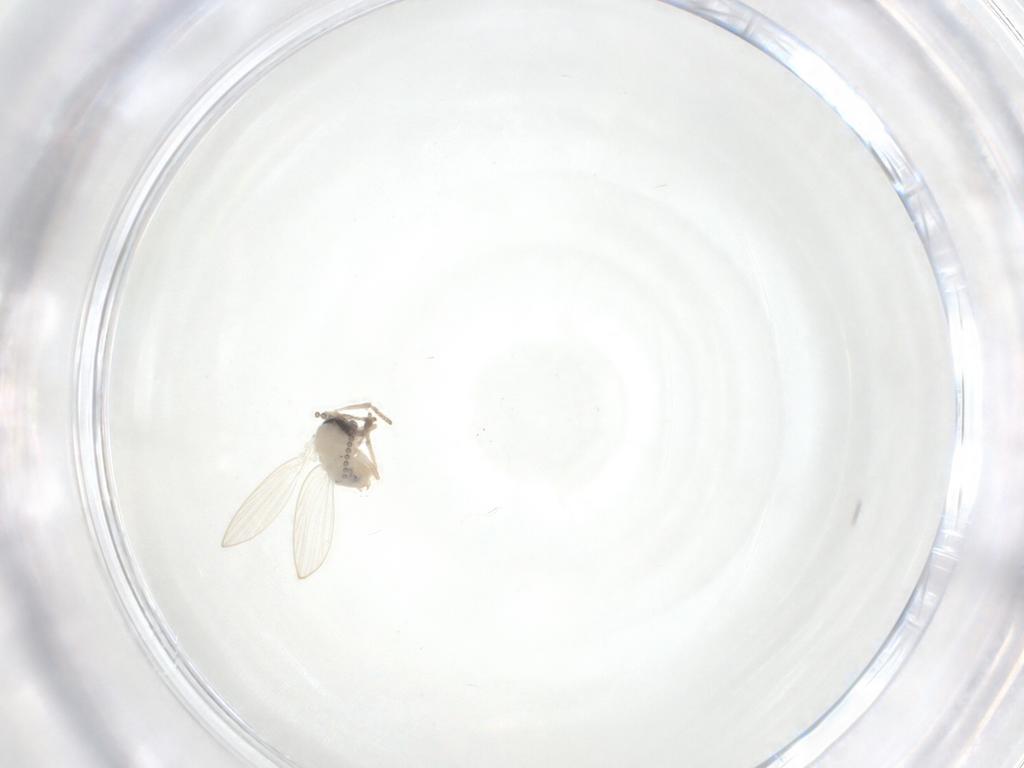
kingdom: Animalia
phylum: Arthropoda
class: Insecta
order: Diptera
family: Psychodidae
